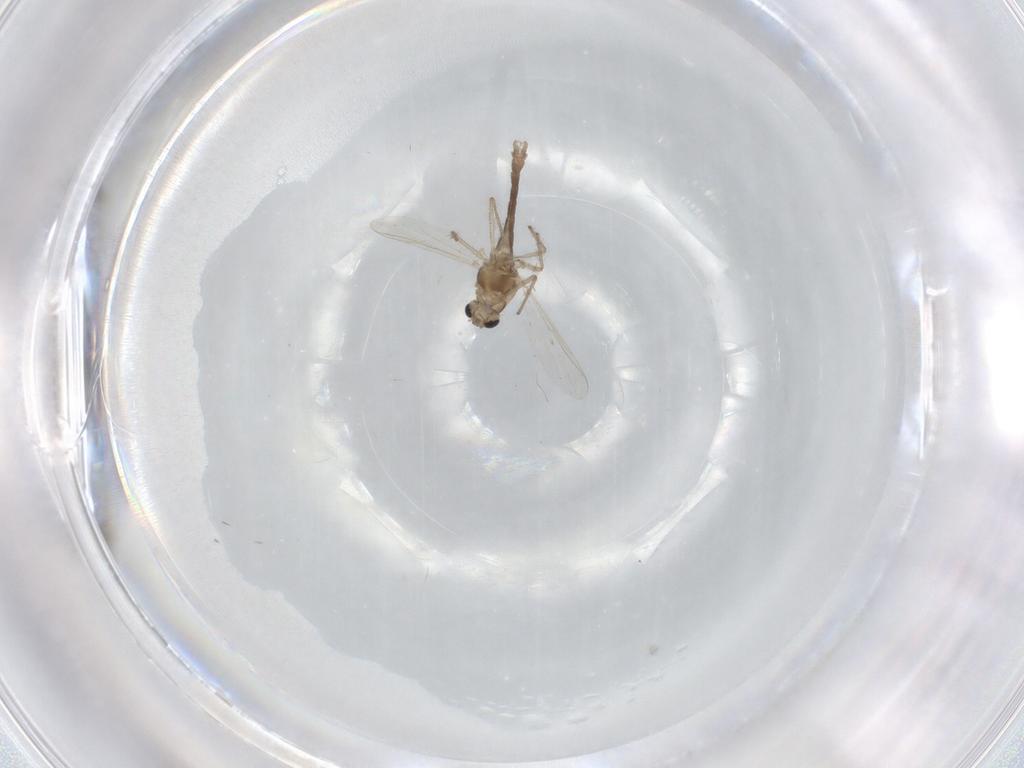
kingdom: Animalia
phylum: Arthropoda
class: Insecta
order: Diptera
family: Chironomidae
